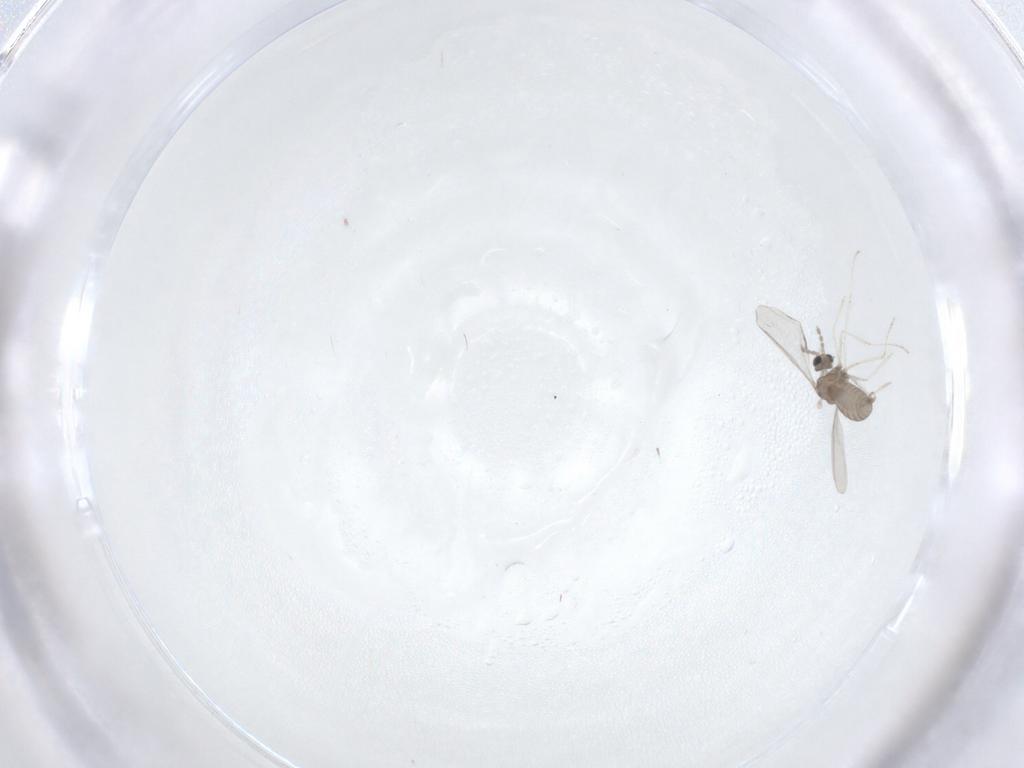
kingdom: Animalia
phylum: Arthropoda
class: Insecta
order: Diptera
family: Cecidomyiidae
